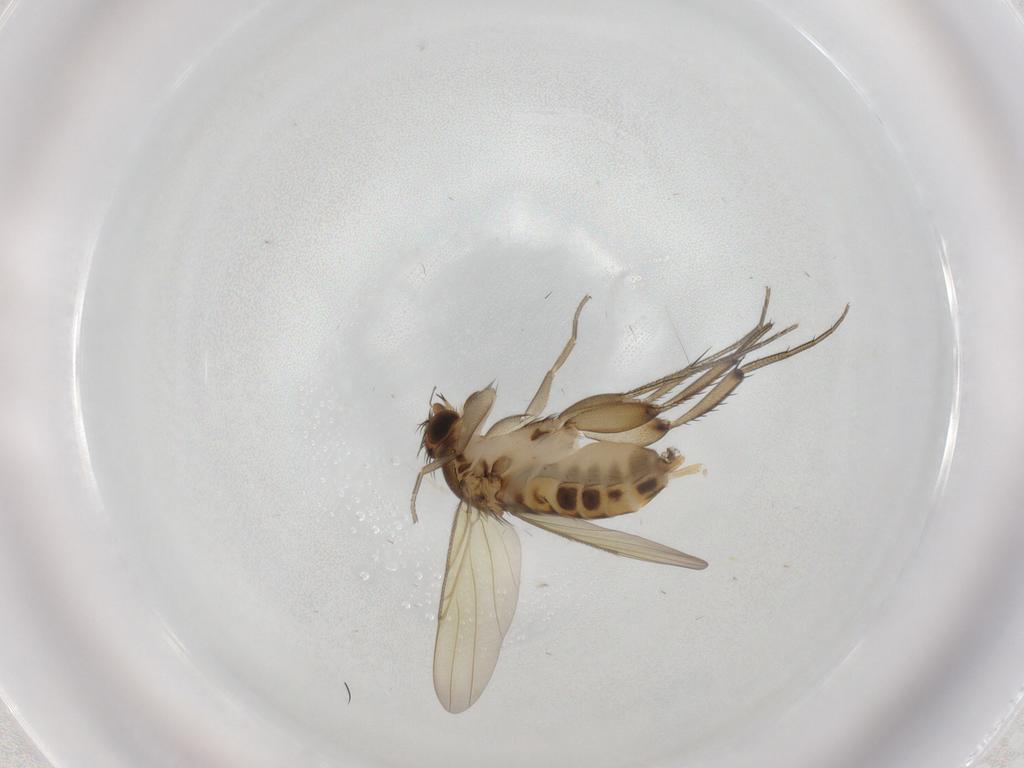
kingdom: Animalia
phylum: Arthropoda
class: Insecta
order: Diptera
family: Phoridae
